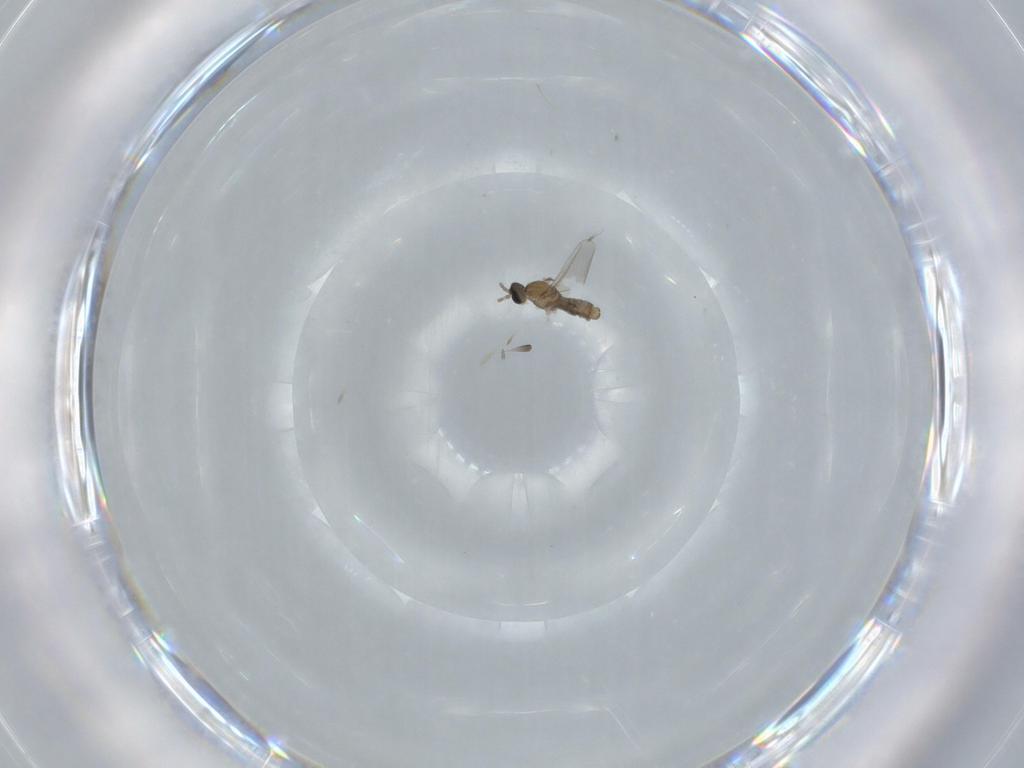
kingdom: Animalia
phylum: Arthropoda
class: Insecta
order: Diptera
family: Cecidomyiidae
